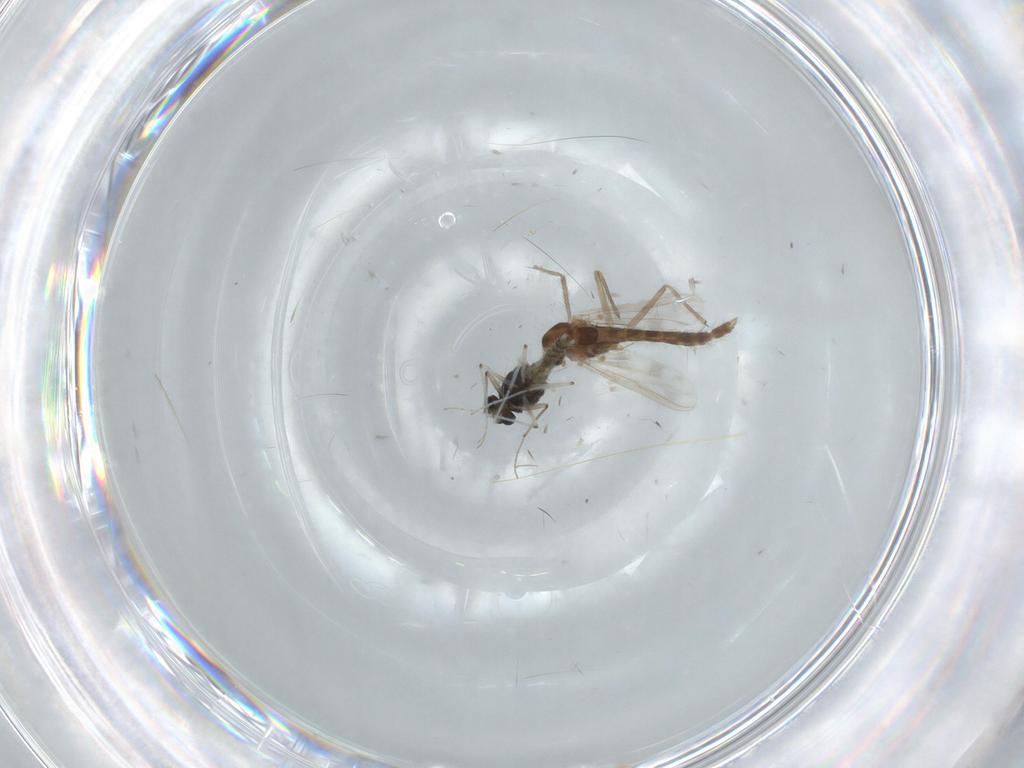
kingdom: Animalia
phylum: Arthropoda
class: Insecta
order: Diptera
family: Chironomidae
